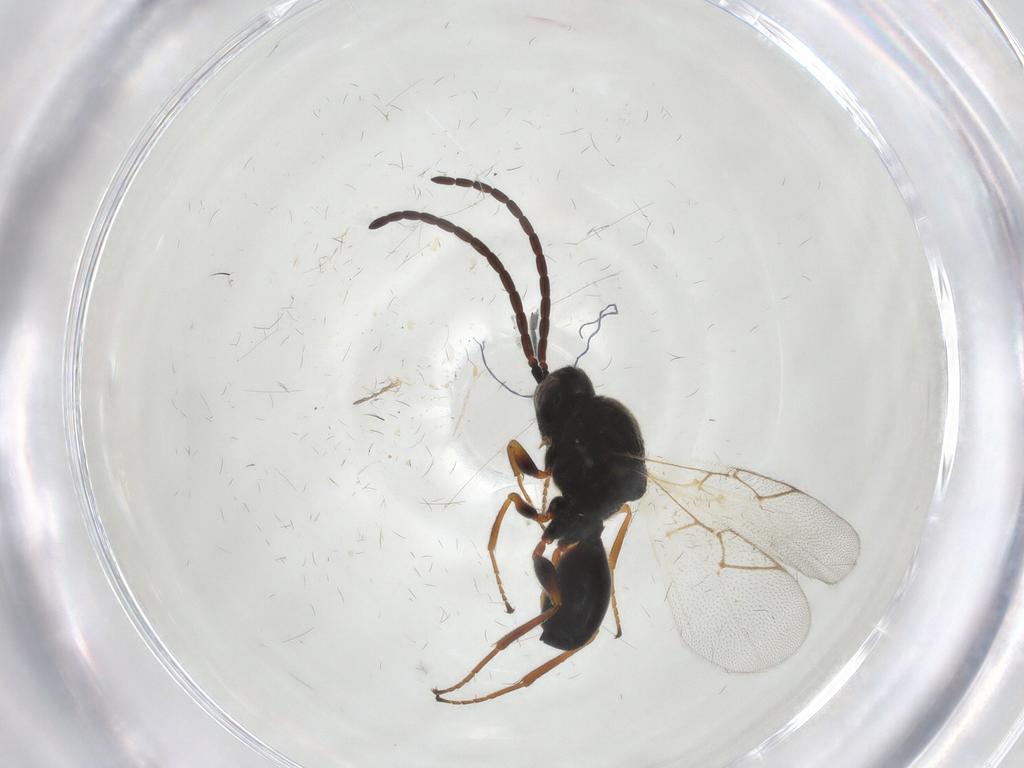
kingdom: Animalia
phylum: Arthropoda
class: Insecta
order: Hymenoptera
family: Figitidae
